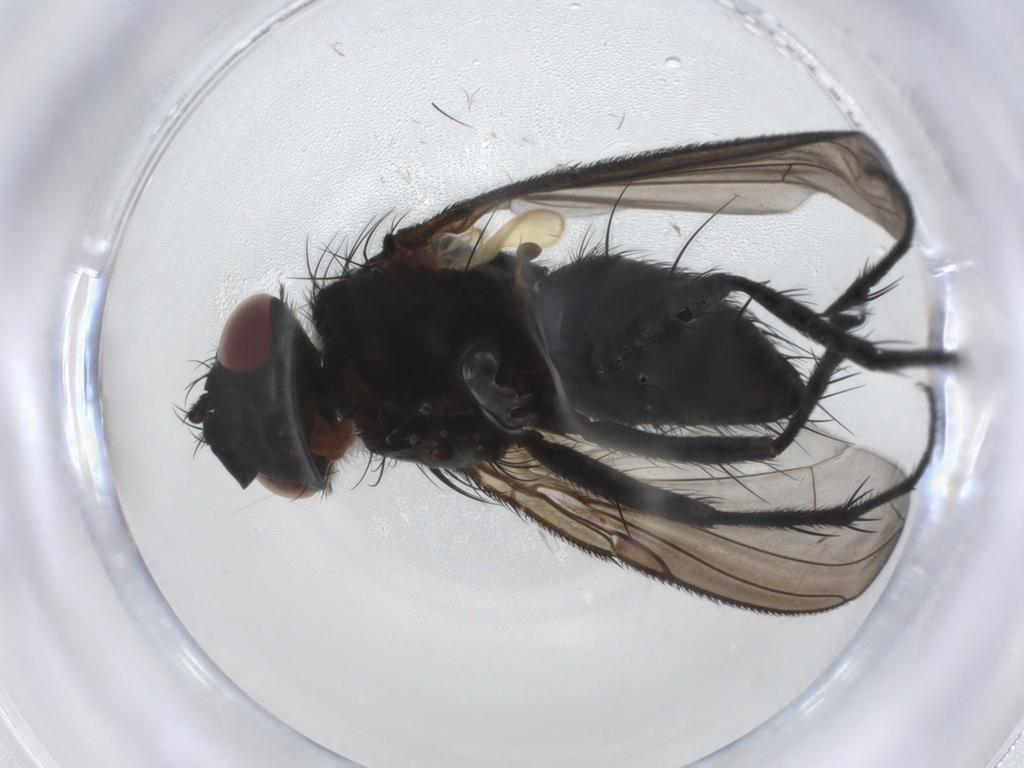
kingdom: Animalia
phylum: Arthropoda
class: Insecta
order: Diptera
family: Tachinidae
